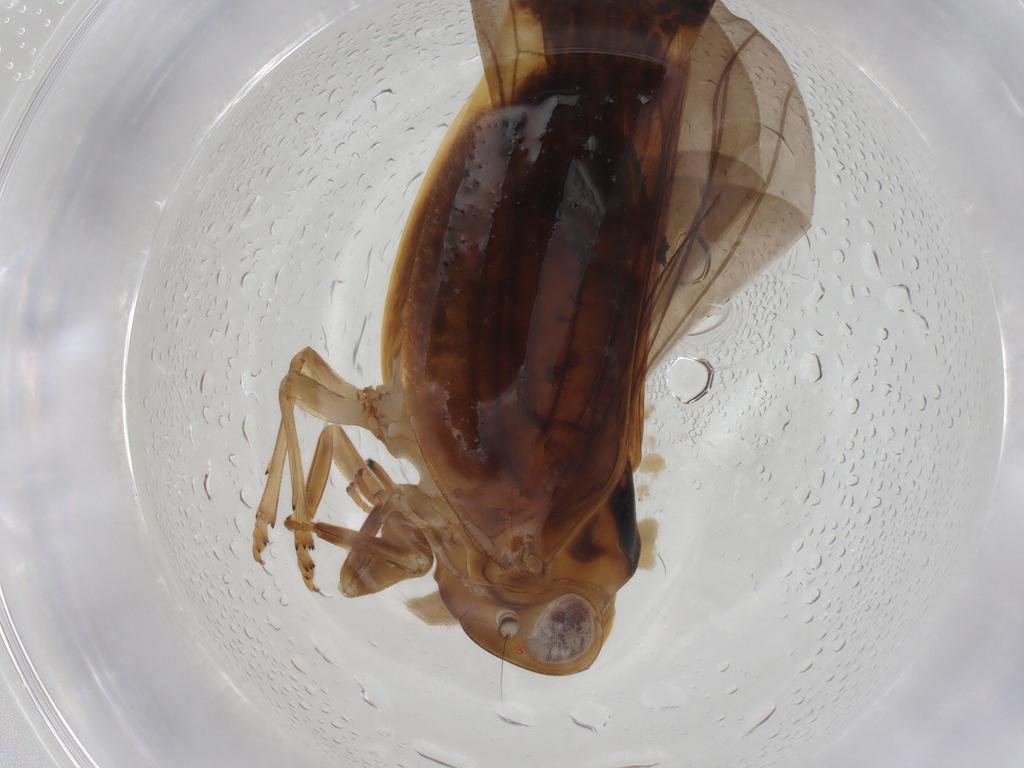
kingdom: Animalia
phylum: Arthropoda
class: Insecta
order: Hemiptera
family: Nogodinidae
